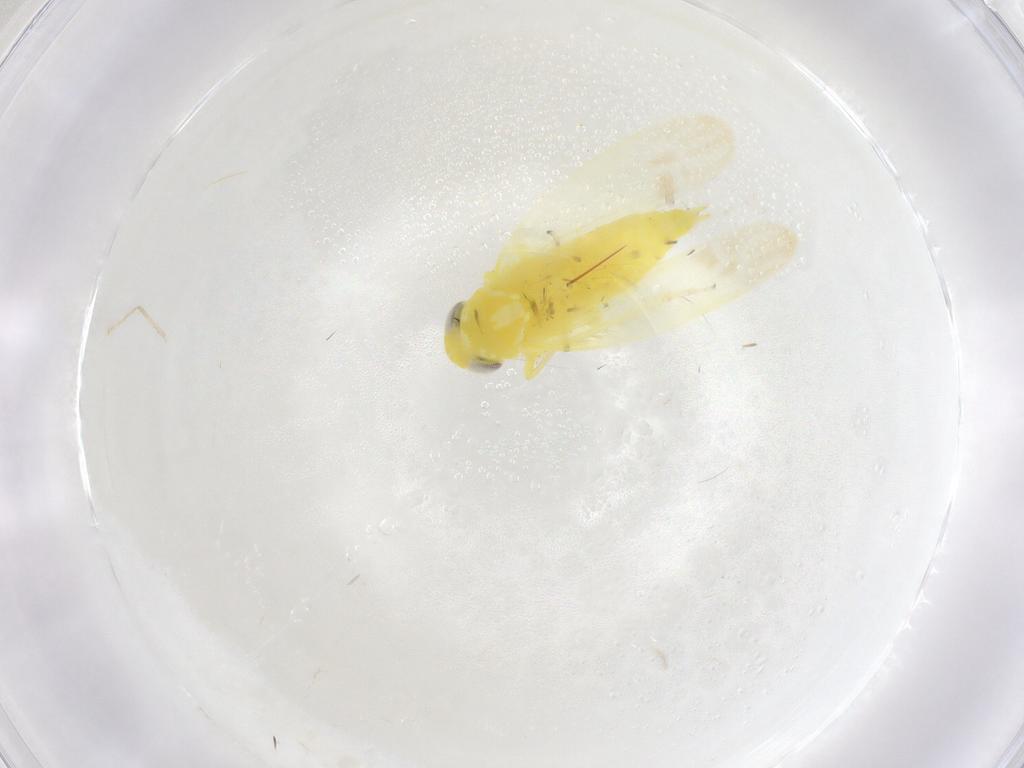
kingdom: Animalia
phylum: Arthropoda
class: Insecta
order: Hemiptera
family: Cicadellidae
